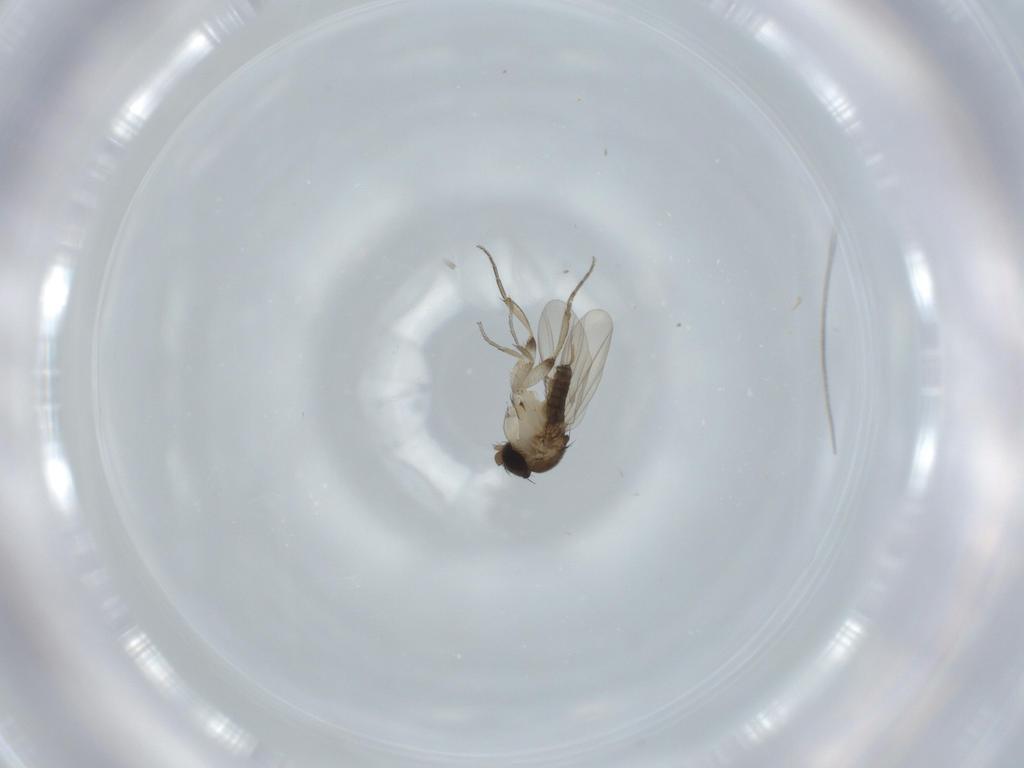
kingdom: Animalia
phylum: Arthropoda
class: Insecta
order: Diptera
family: Phoridae
